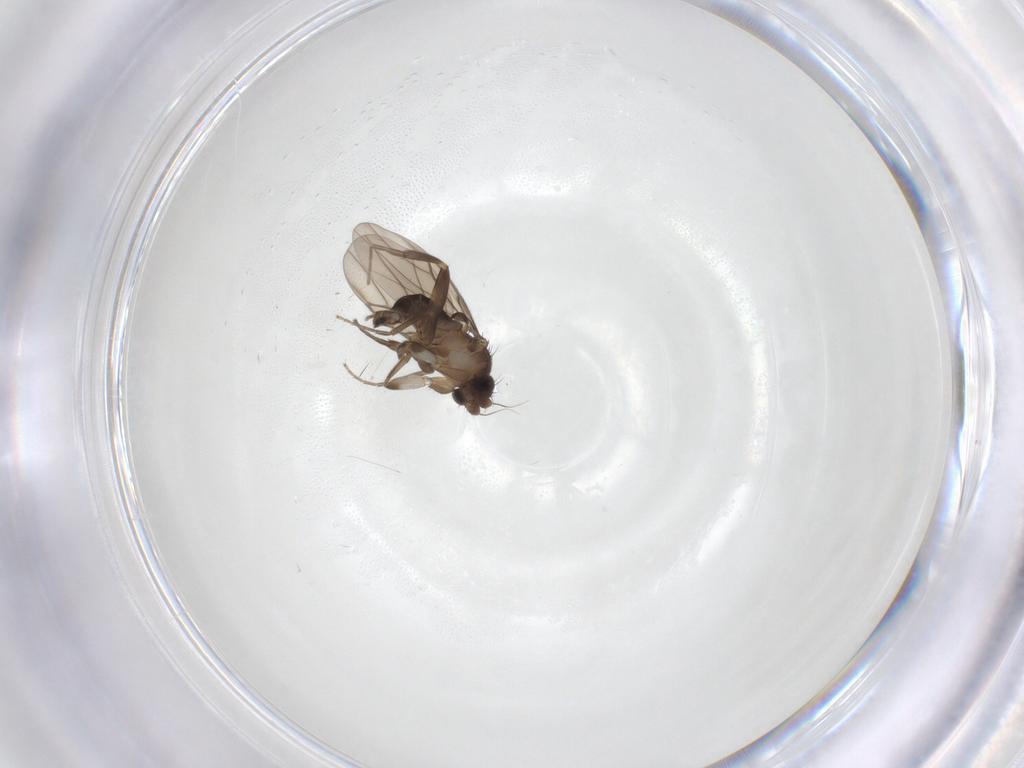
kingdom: Animalia
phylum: Arthropoda
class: Insecta
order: Diptera
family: Phoridae
